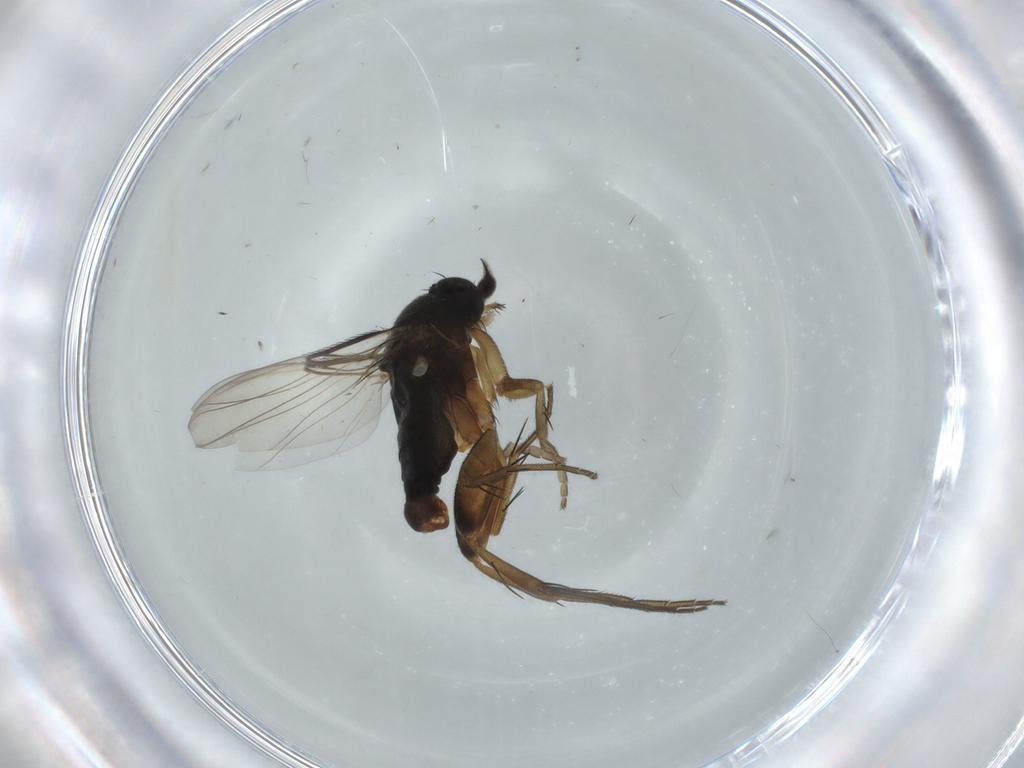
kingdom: Animalia
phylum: Arthropoda
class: Insecta
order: Diptera
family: Phoridae
